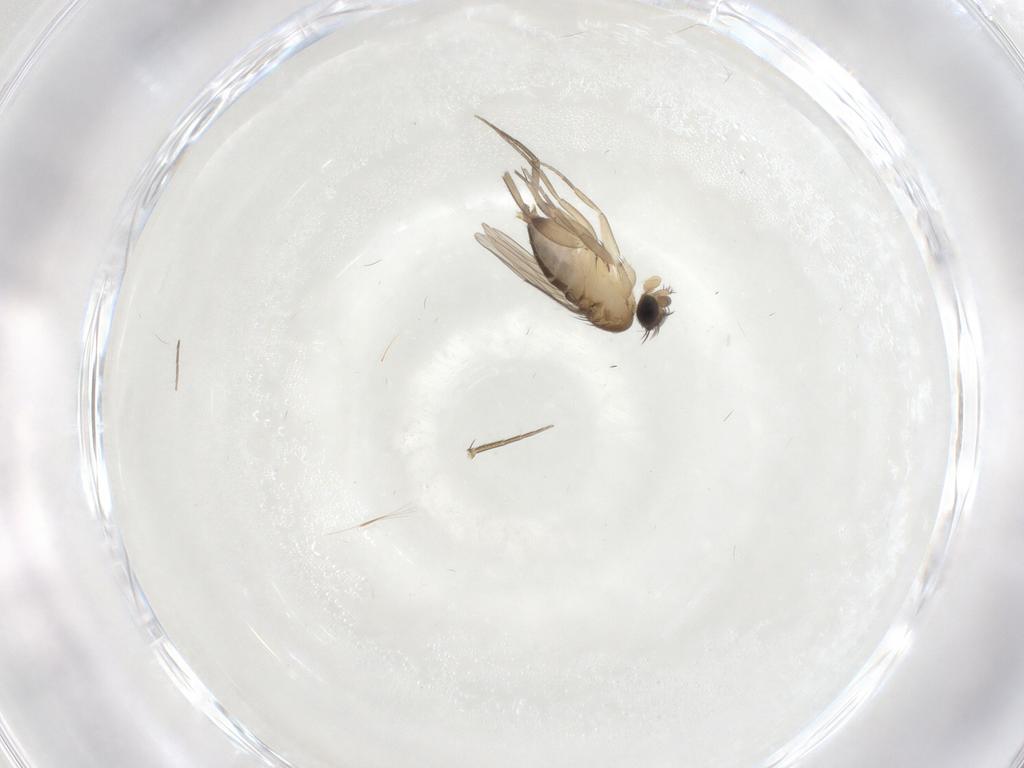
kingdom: Animalia
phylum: Arthropoda
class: Insecta
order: Diptera
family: Phoridae
